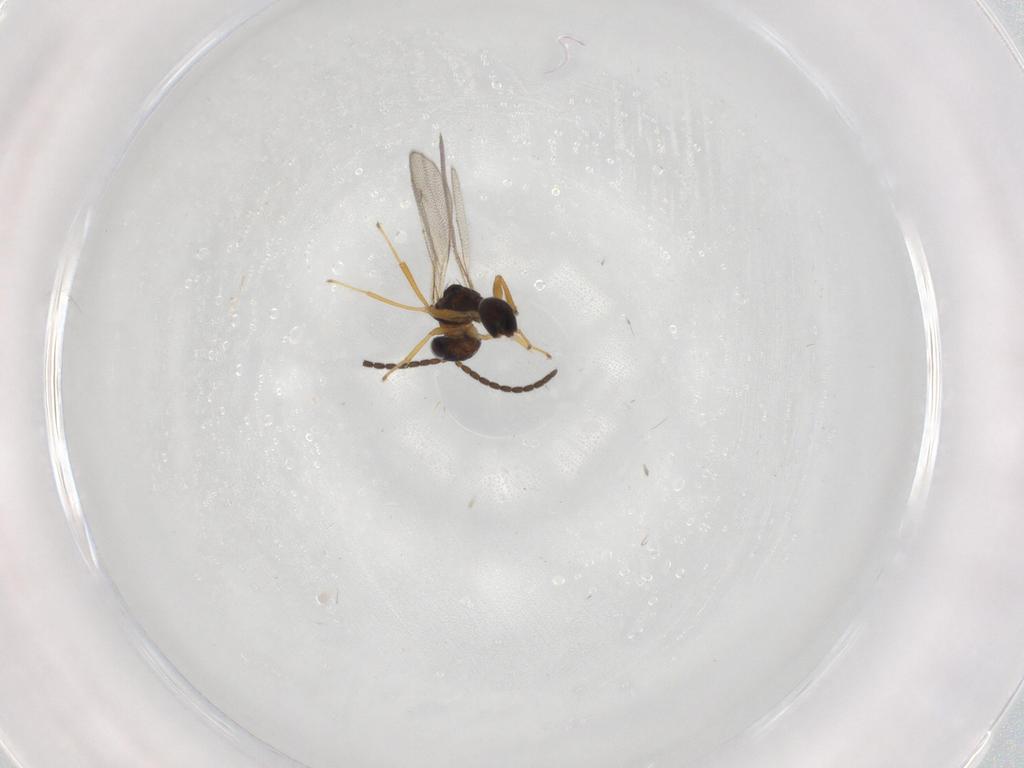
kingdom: Animalia
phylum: Arthropoda
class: Insecta
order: Hymenoptera
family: Diparidae
